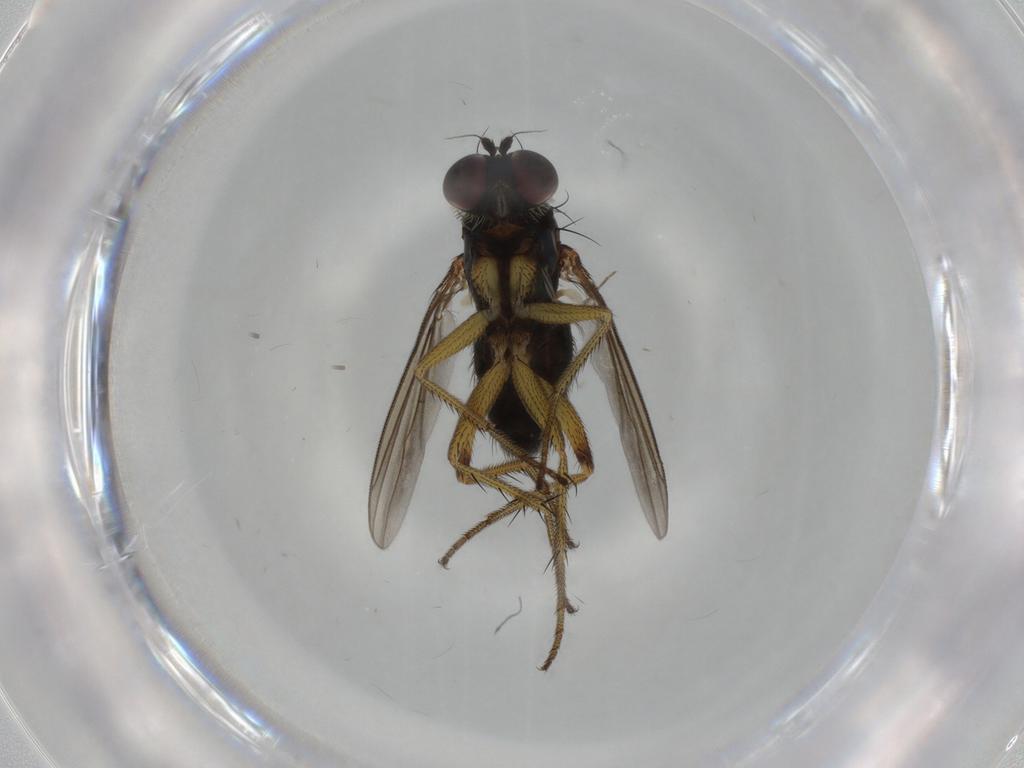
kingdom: Animalia
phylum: Arthropoda
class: Insecta
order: Diptera
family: Dolichopodidae
